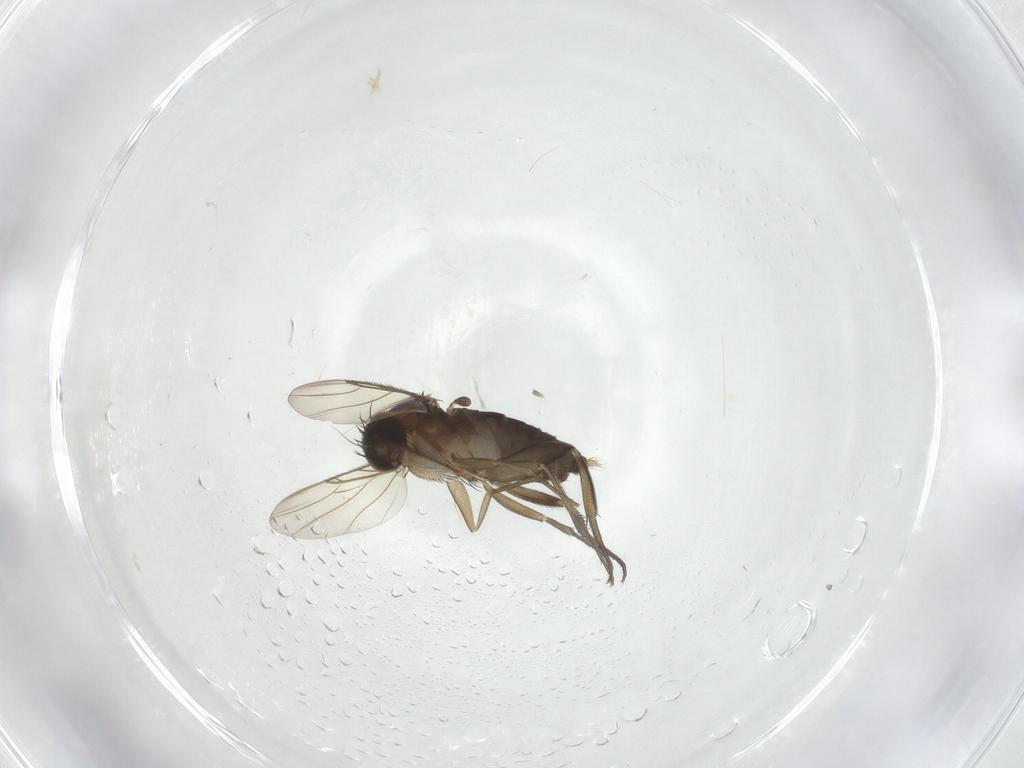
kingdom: Animalia
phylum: Arthropoda
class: Insecta
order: Diptera
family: Phoridae
